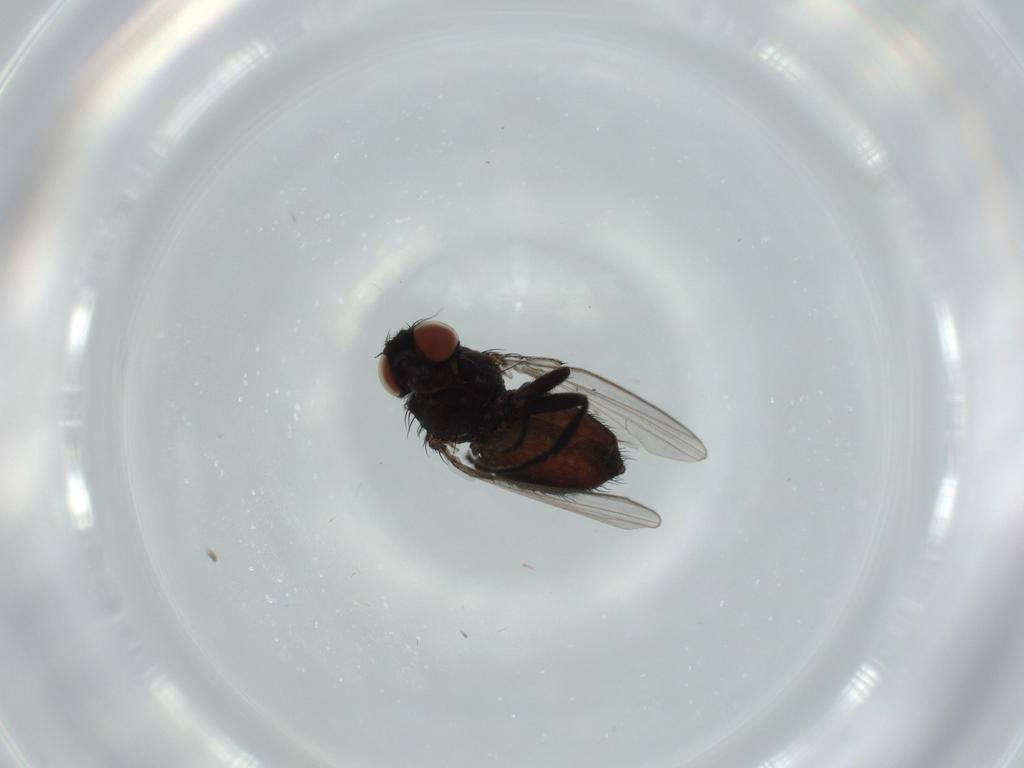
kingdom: Animalia
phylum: Arthropoda
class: Insecta
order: Diptera
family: Milichiidae
